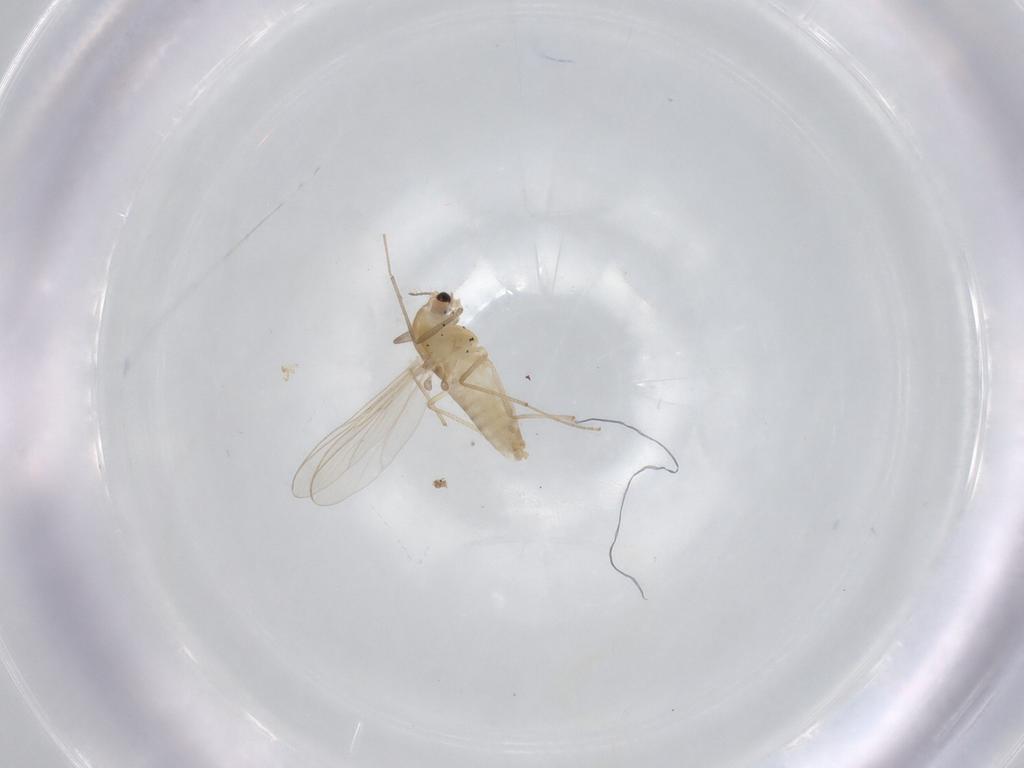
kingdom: Animalia
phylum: Arthropoda
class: Insecta
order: Diptera
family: Chironomidae
